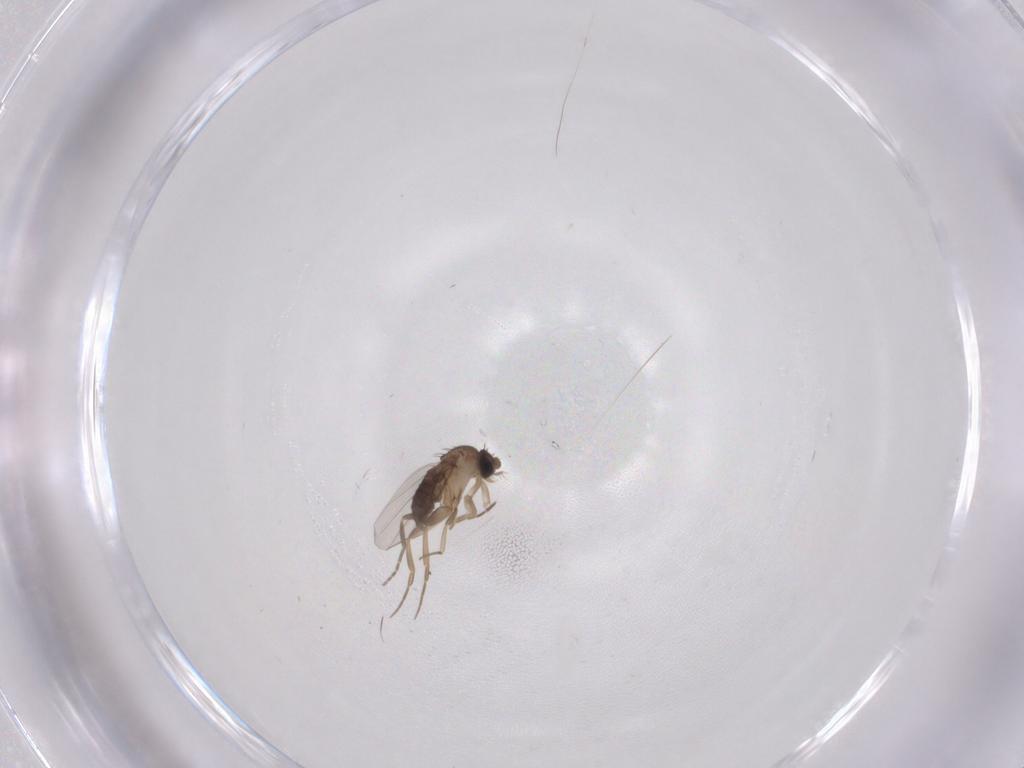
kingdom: Animalia
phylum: Arthropoda
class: Insecta
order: Diptera
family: Phoridae
